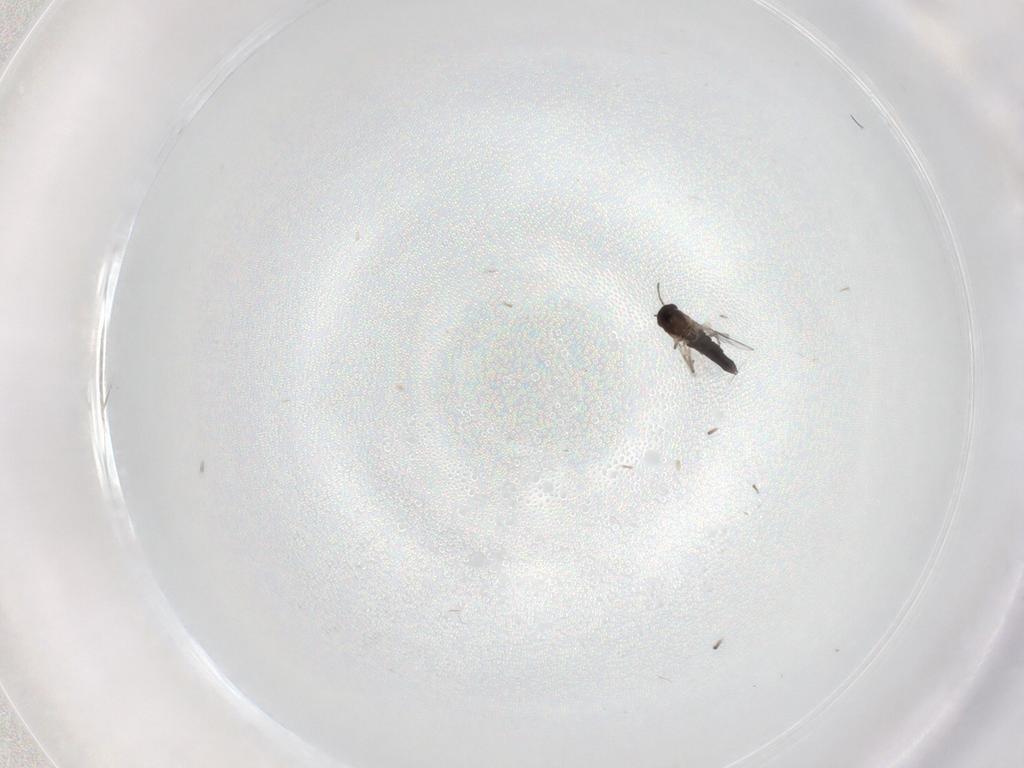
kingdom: Animalia
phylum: Arthropoda
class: Insecta
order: Diptera
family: Chironomidae
